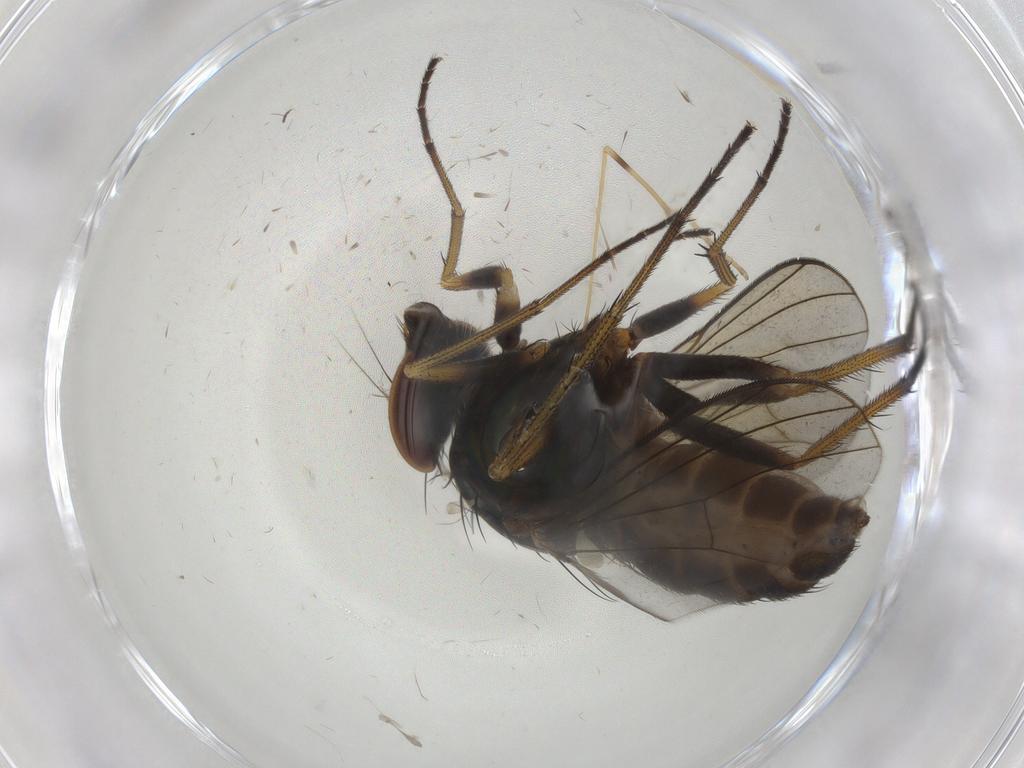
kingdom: Animalia
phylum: Arthropoda
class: Insecta
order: Diptera
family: Dolichopodidae
